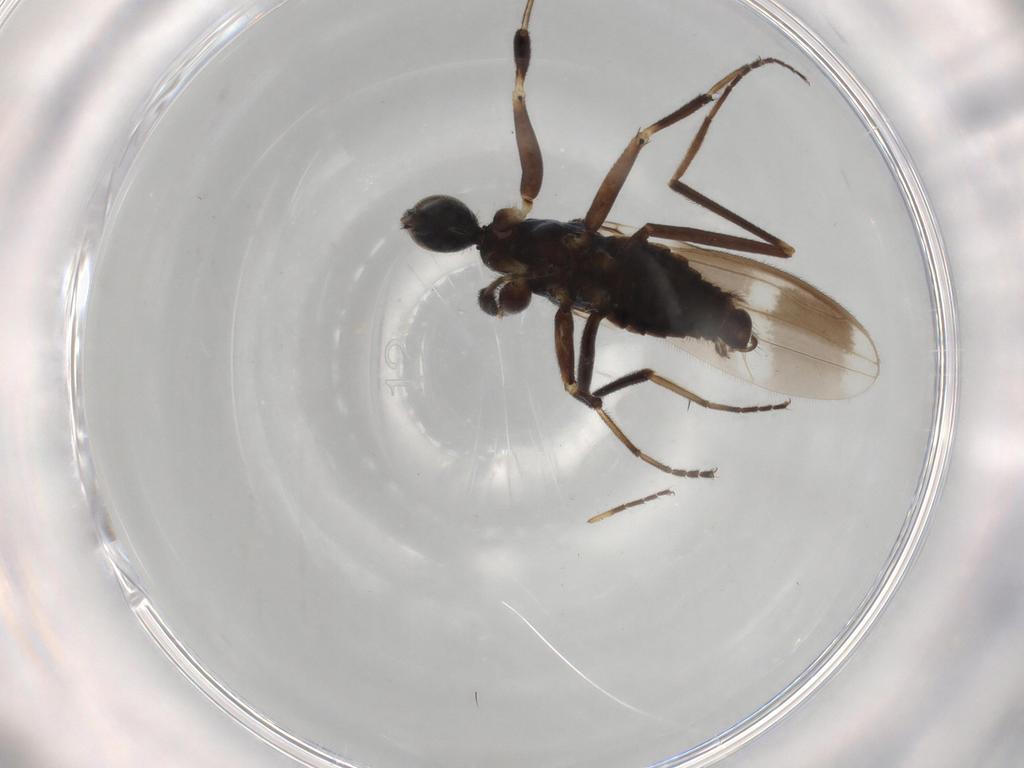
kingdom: Animalia
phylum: Arthropoda
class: Insecta
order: Diptera
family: Hybotidae
